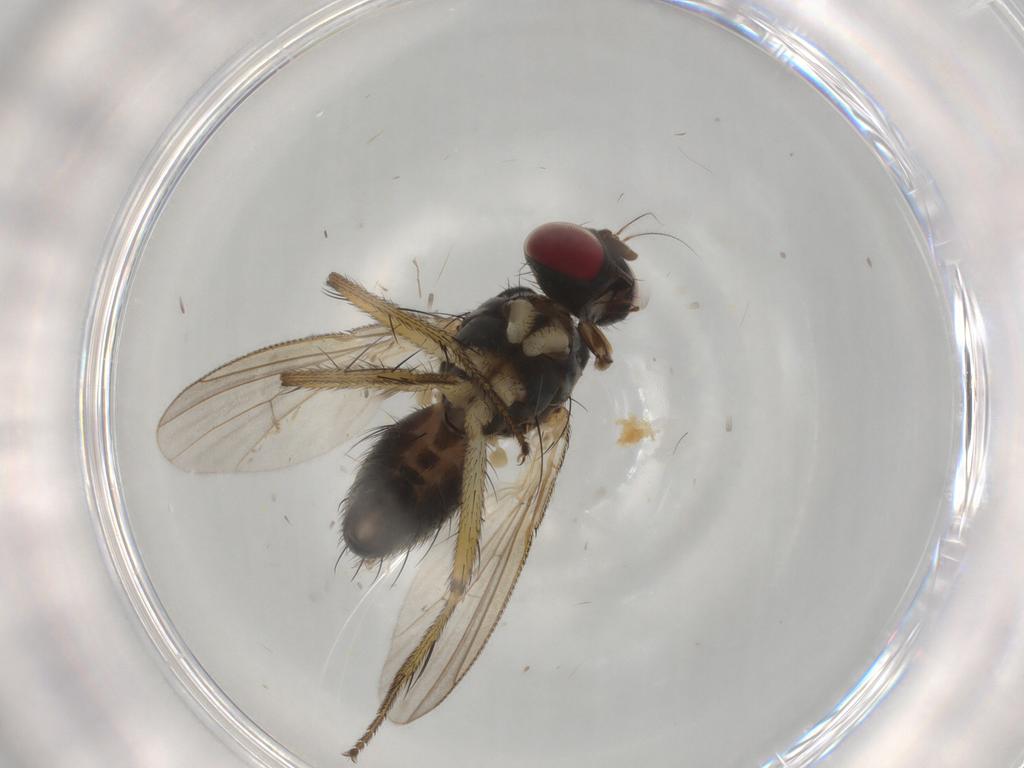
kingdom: Animalia
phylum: Arthropoda
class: Insecta
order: Diptera
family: Muscidae
